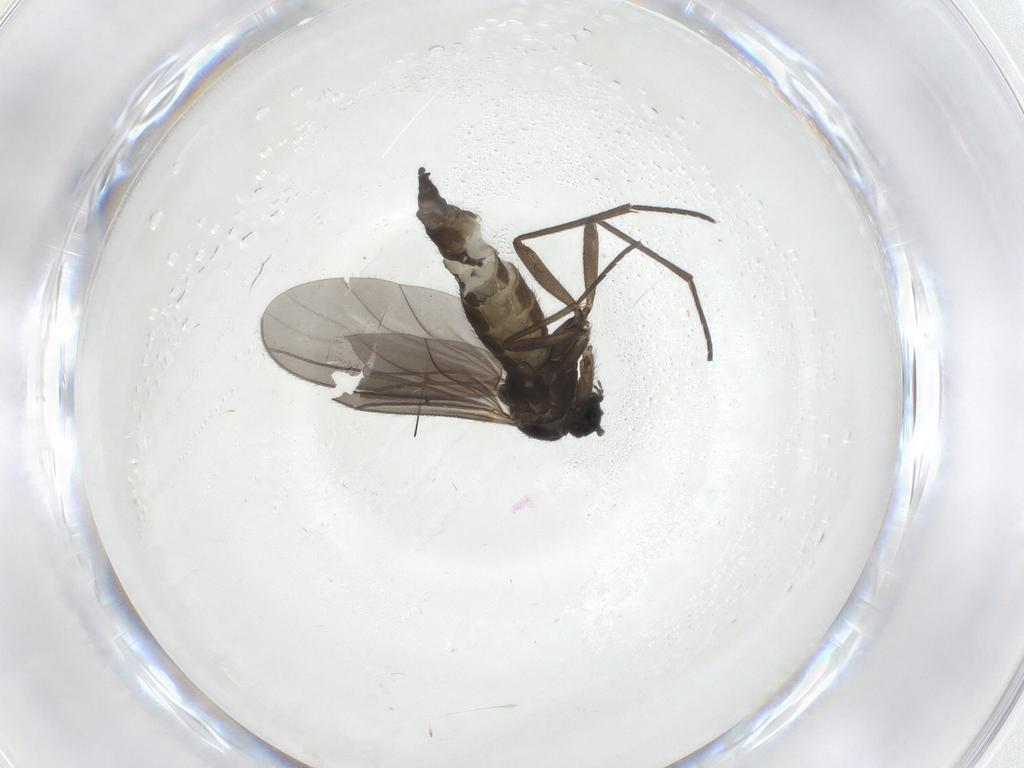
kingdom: Animalia
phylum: Arthropoda
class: Insecta
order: Diptera
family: Sciaridae
